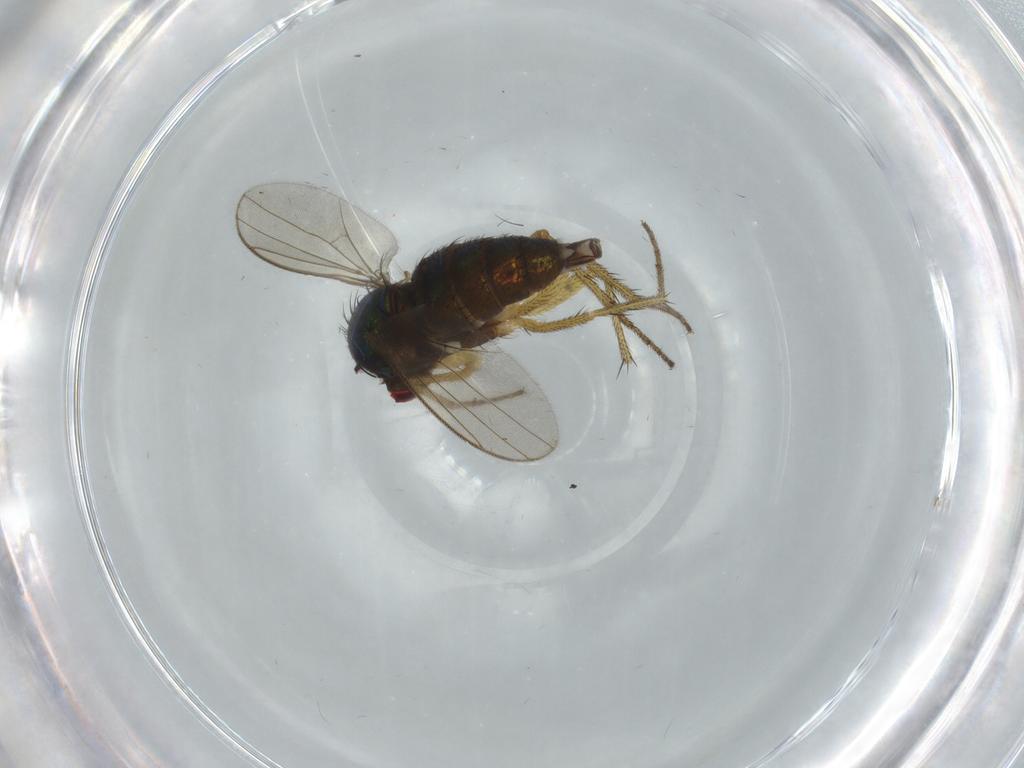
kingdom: Animalia
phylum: Arthropoda
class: Insecta
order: Diptera
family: Dolichopodidae
